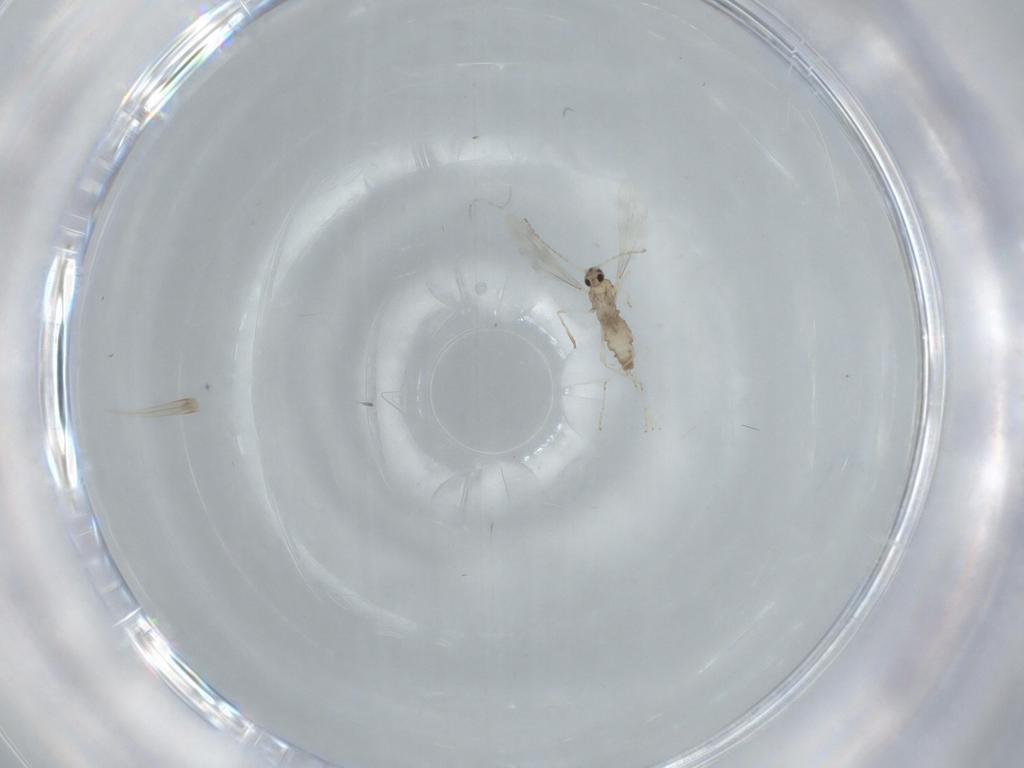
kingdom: Animalia
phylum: Arthropoda
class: Insecta
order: Diptera
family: Cecidomyiidae
